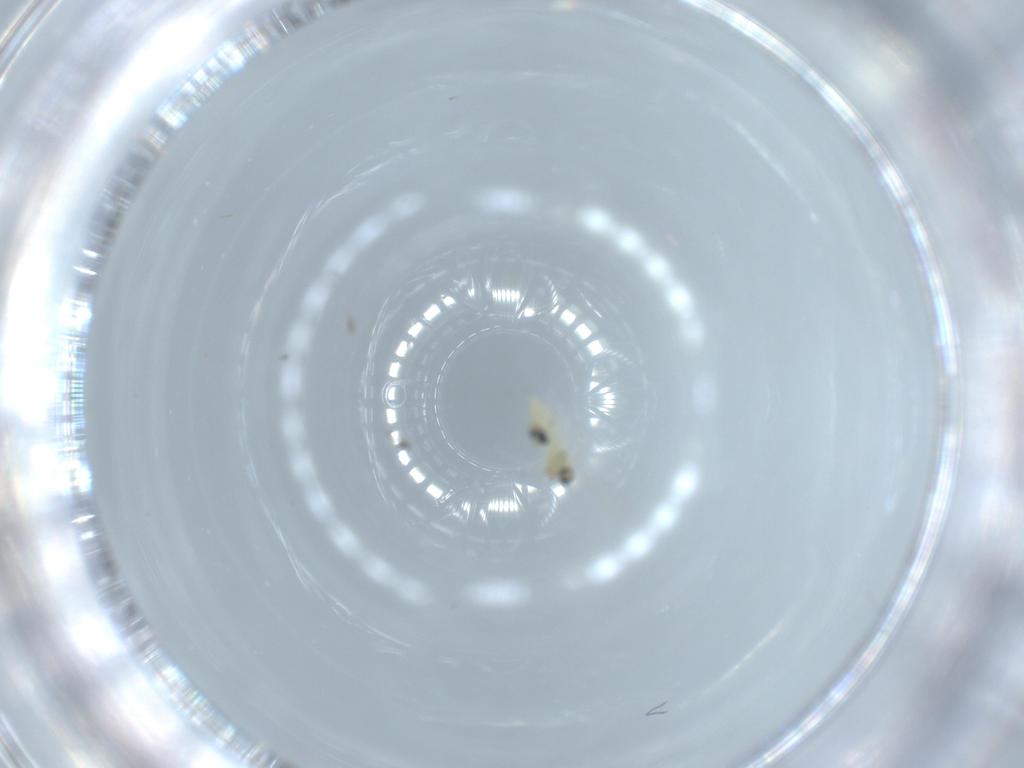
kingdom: Animalia
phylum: Arthropoda
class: Insecta
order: Diptera
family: Cecidomyiidae
